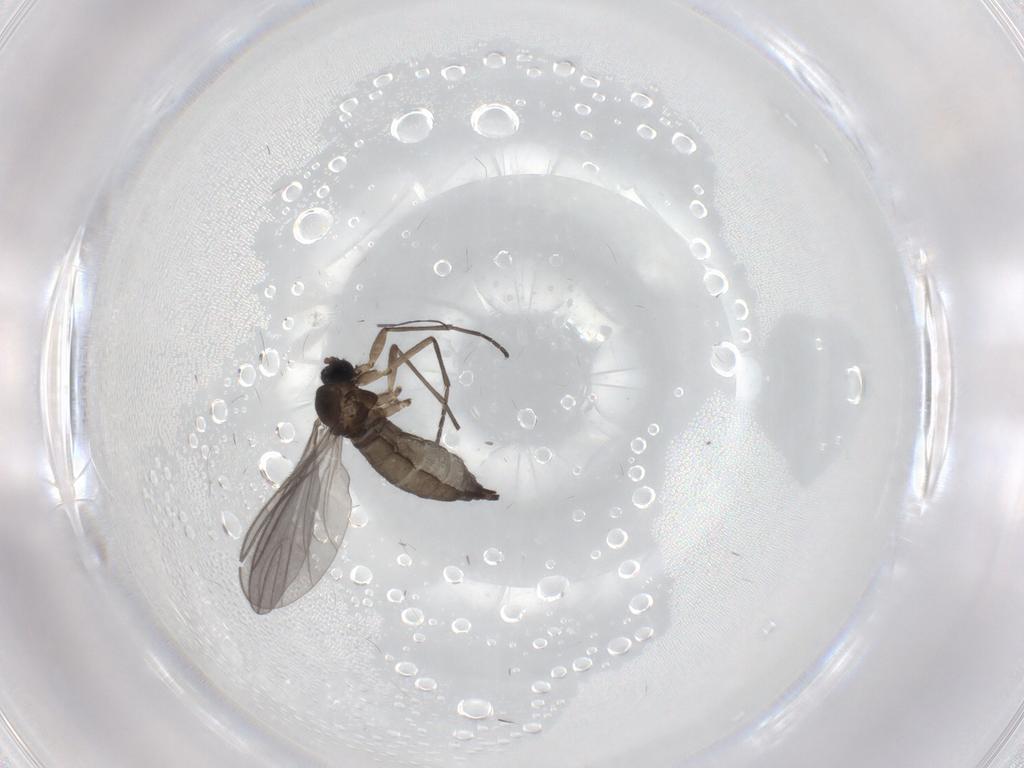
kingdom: Animalia
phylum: Arthropoda
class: Insecta
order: Diptera
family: Sciaridae
